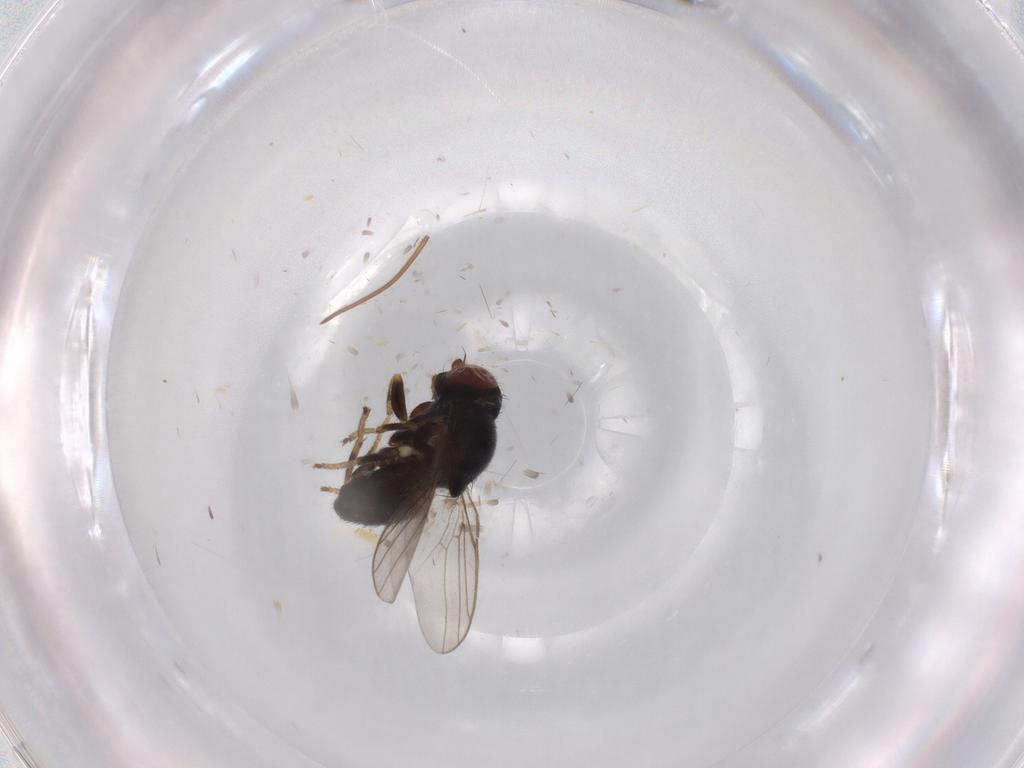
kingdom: Animalia
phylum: Arthropoda
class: Insecta
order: Diptera
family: Chloropidae
